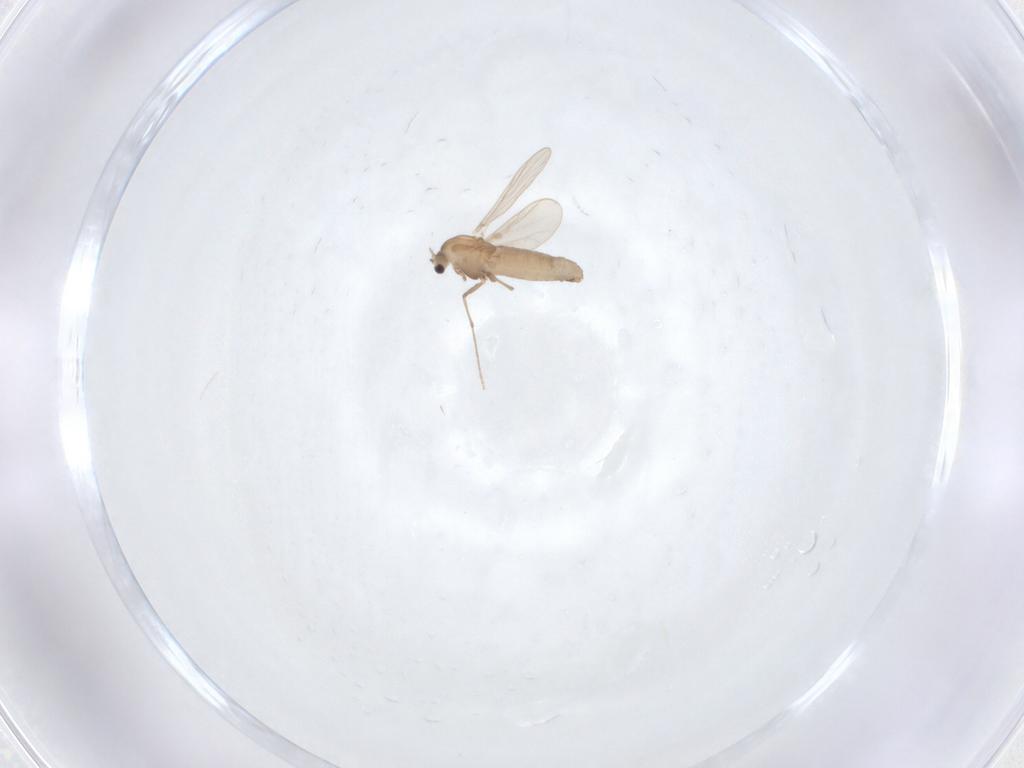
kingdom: Animalia
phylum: Arthropoda
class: Insecta
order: Diptera
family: Chironomidae
